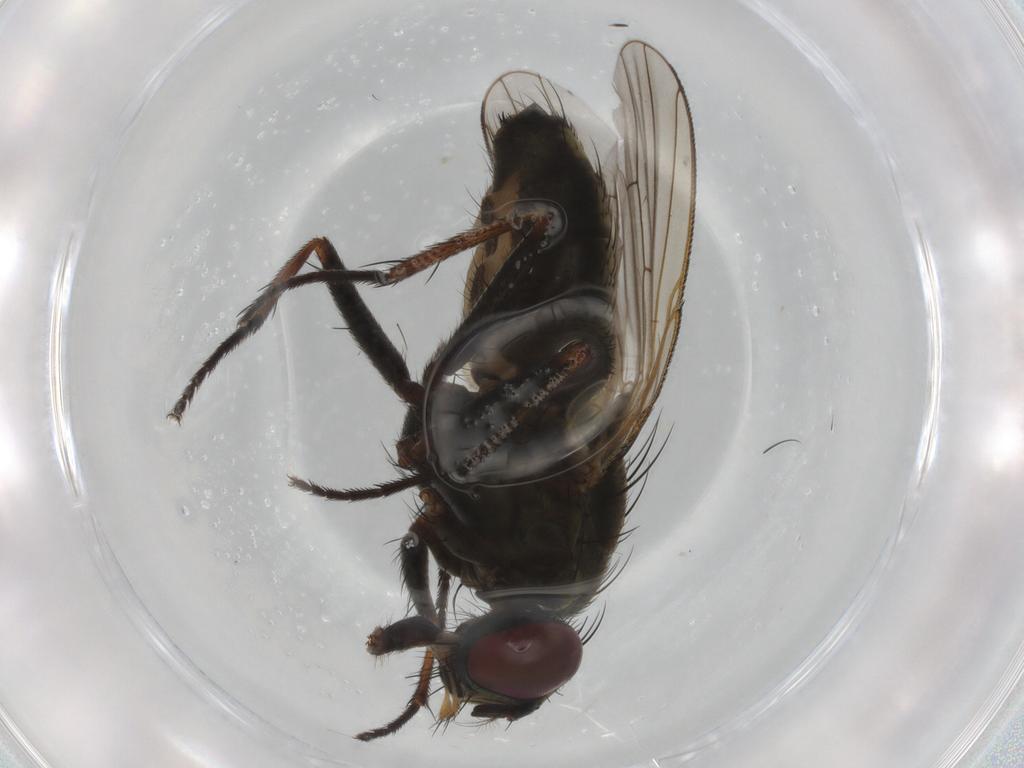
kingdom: Animalia
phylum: Arthropoda
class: Insecta
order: Diptera
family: Muscidae
